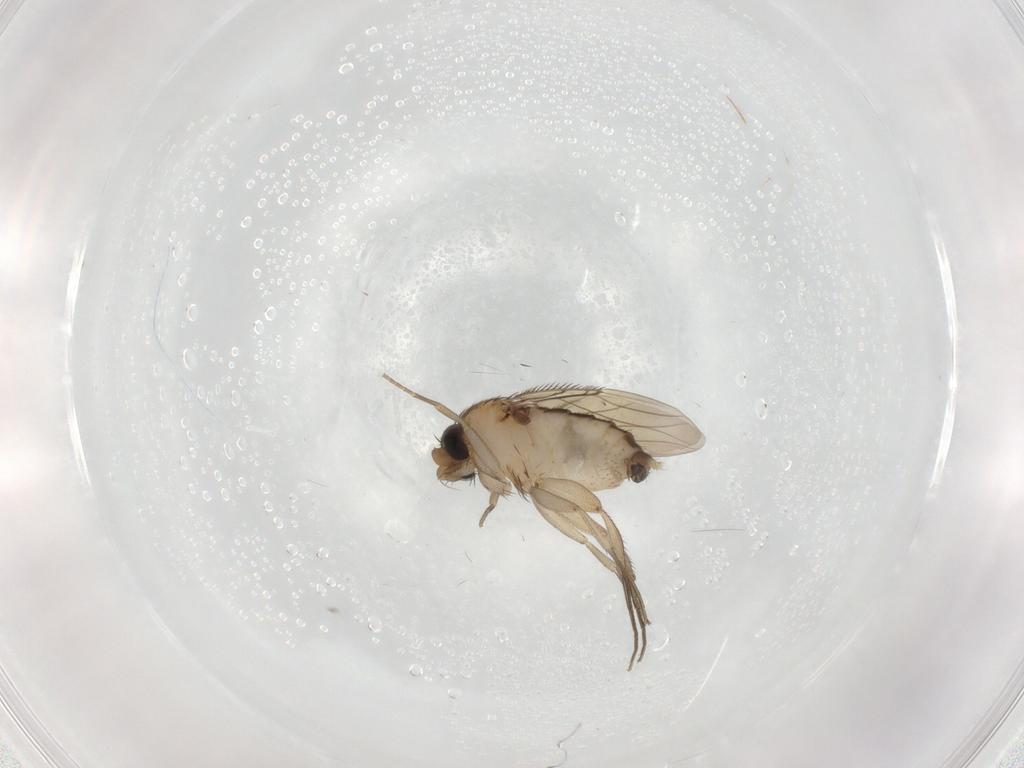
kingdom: Animalia
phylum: Arthropoda
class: Insecta
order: Diptera
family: Phoridae
